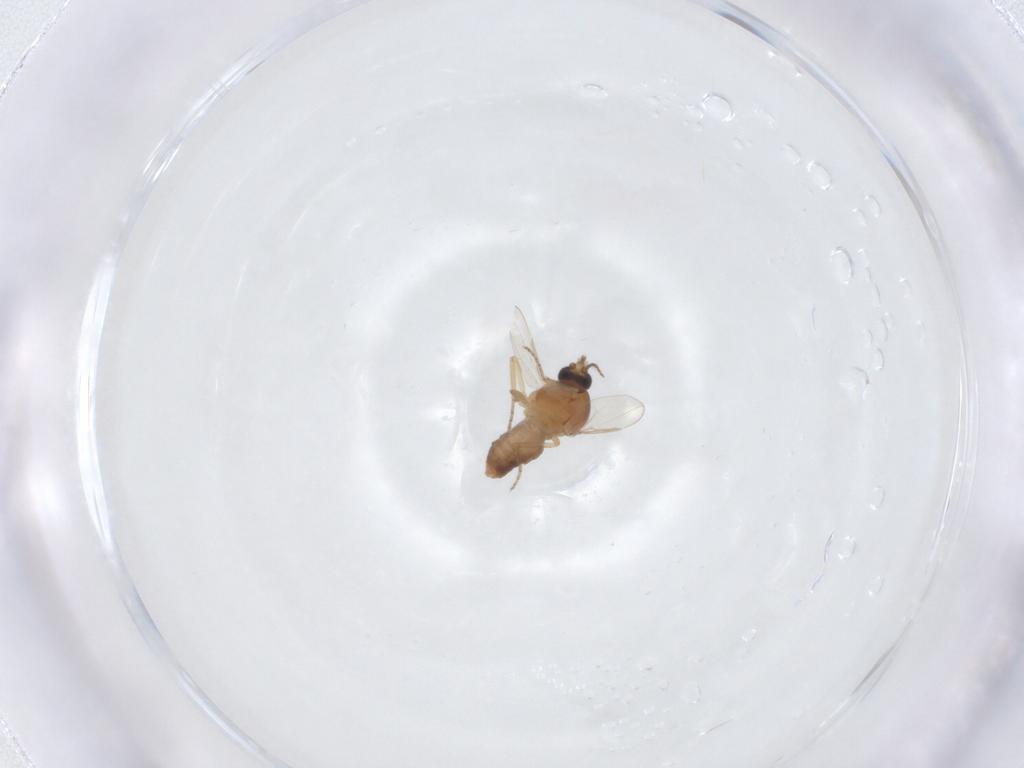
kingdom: Animalia
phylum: Arthropoda
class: Insecta
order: Diptera
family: Ceratopogonidae
